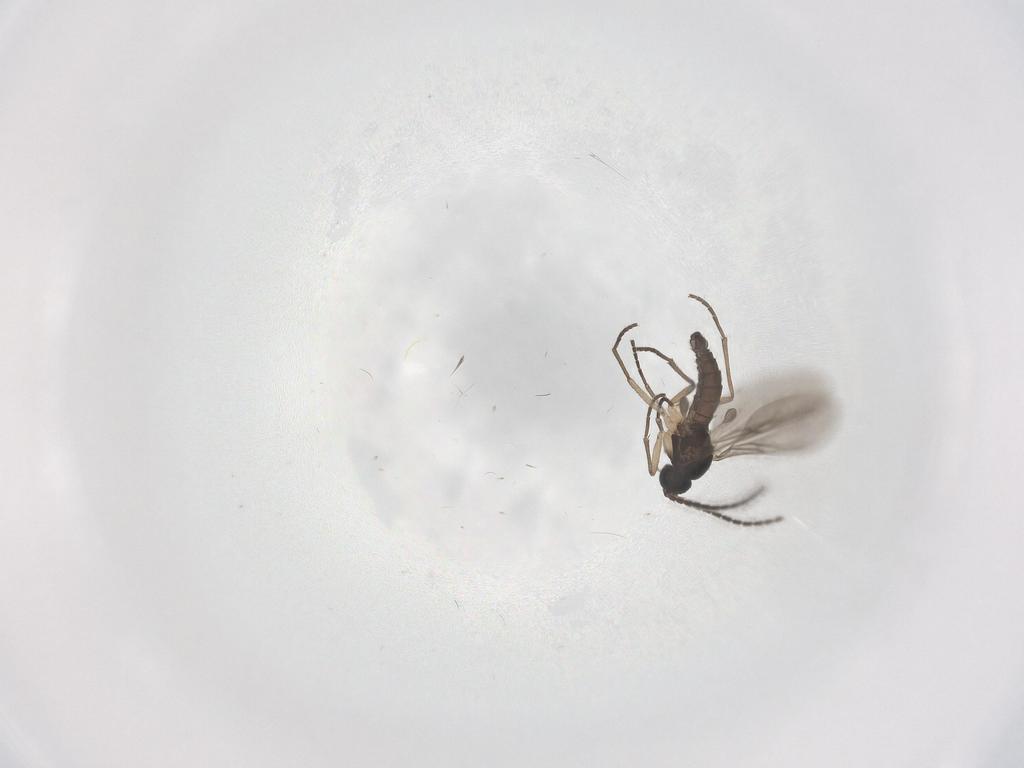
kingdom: Animalia
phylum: Arthropoda
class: Insecta
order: Diptera
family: Sciaridae
